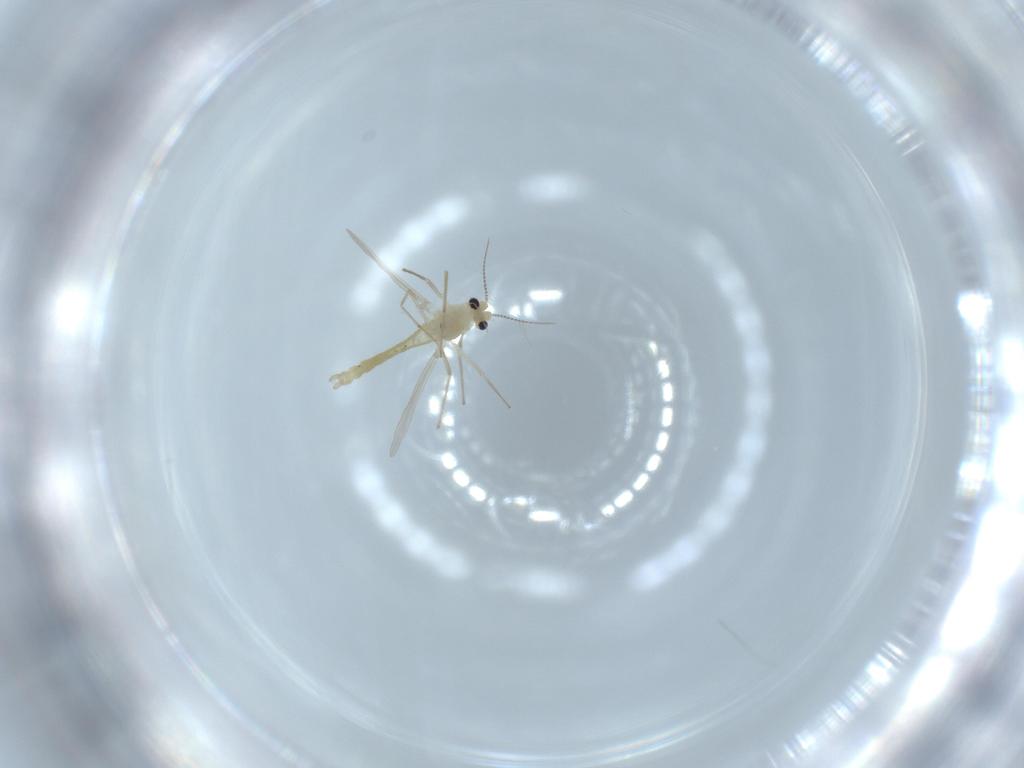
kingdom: Animalia
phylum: Arthropoda
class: Insecta
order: Diptera
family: Chironomidae
